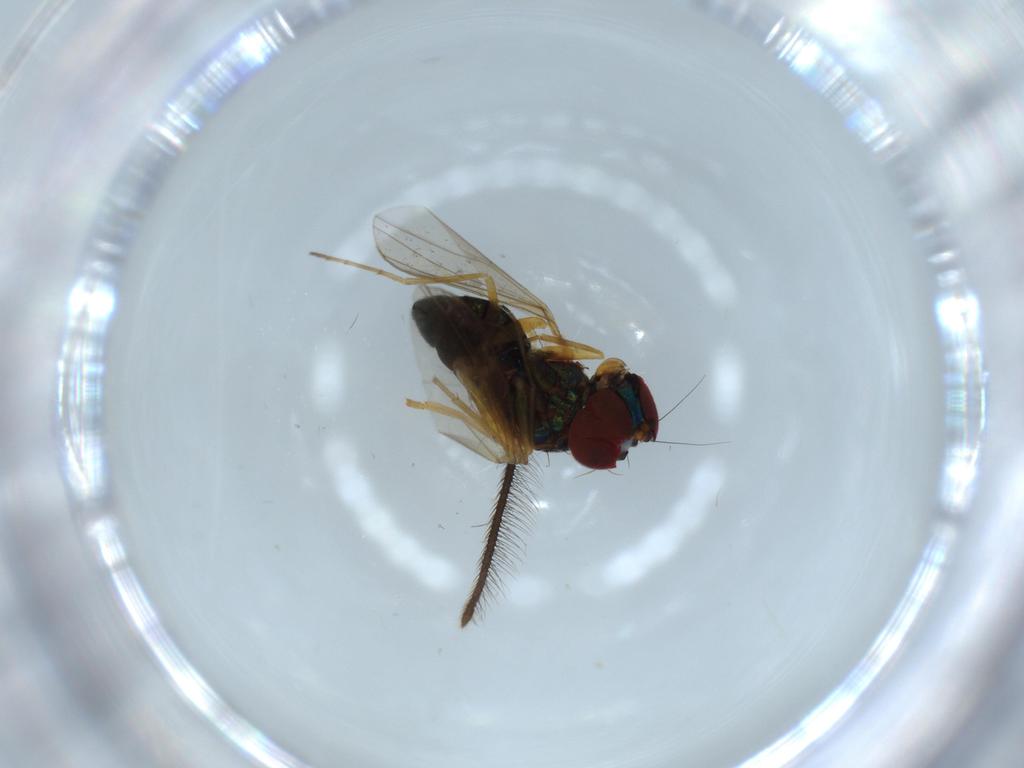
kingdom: Animalia
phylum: Arthropoda
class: Insecta
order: Diptera
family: Dolichopodidae
